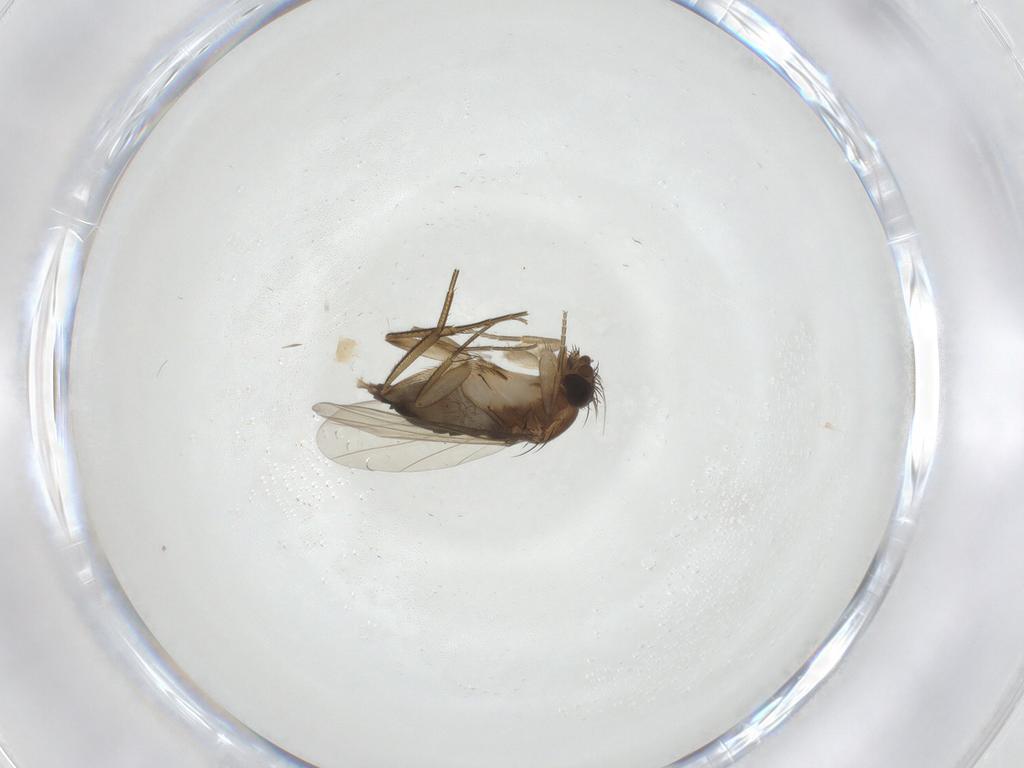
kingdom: Animalia
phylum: Arthropoda
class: Insecta
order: Diptera
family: Phoridae
